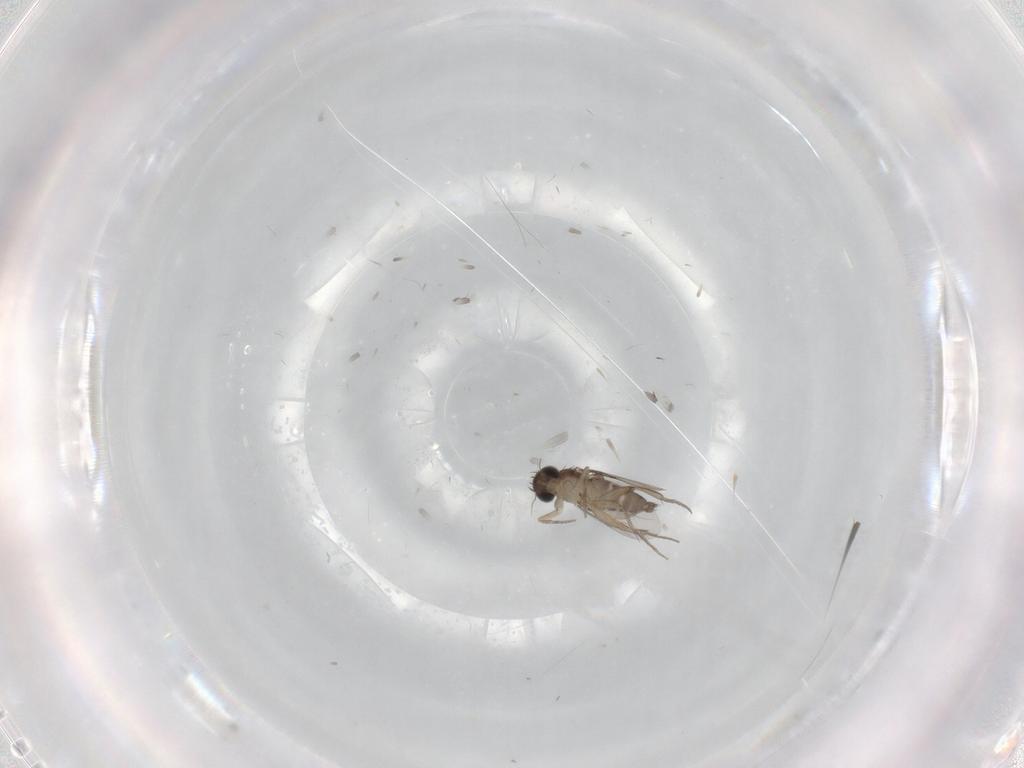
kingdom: Animalia
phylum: Arthropoda
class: Insecta
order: Diptera
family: Phoridae
